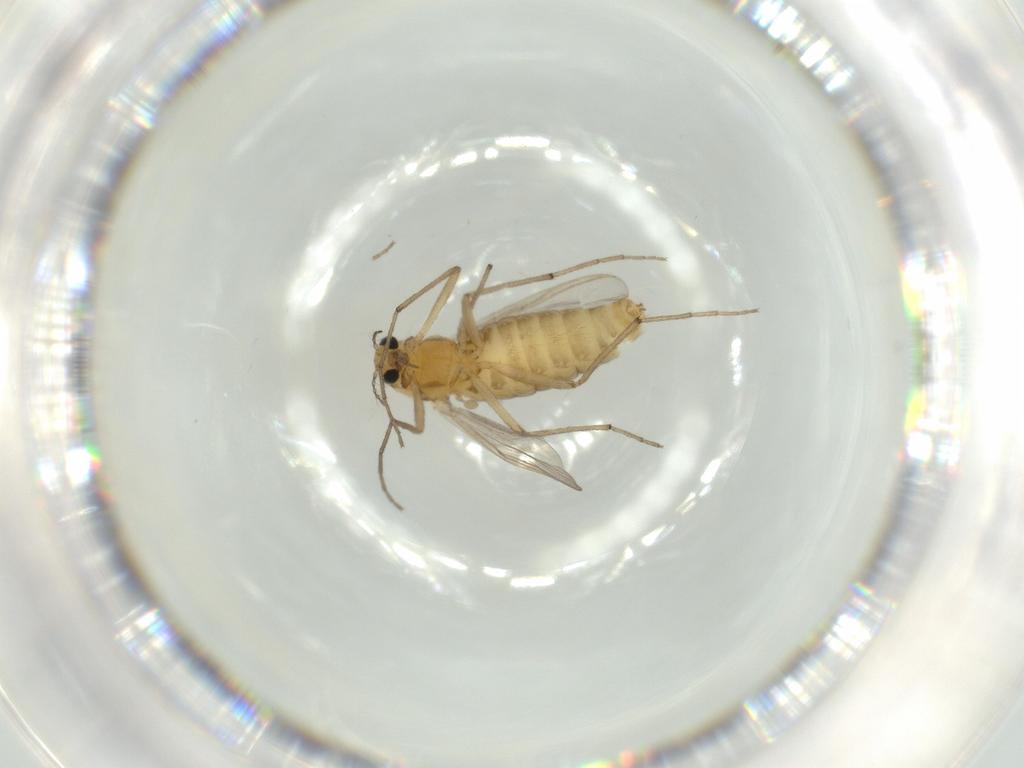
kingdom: Animalia
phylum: Arthropoda
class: Insecta
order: Diptera
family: Chironomidae
